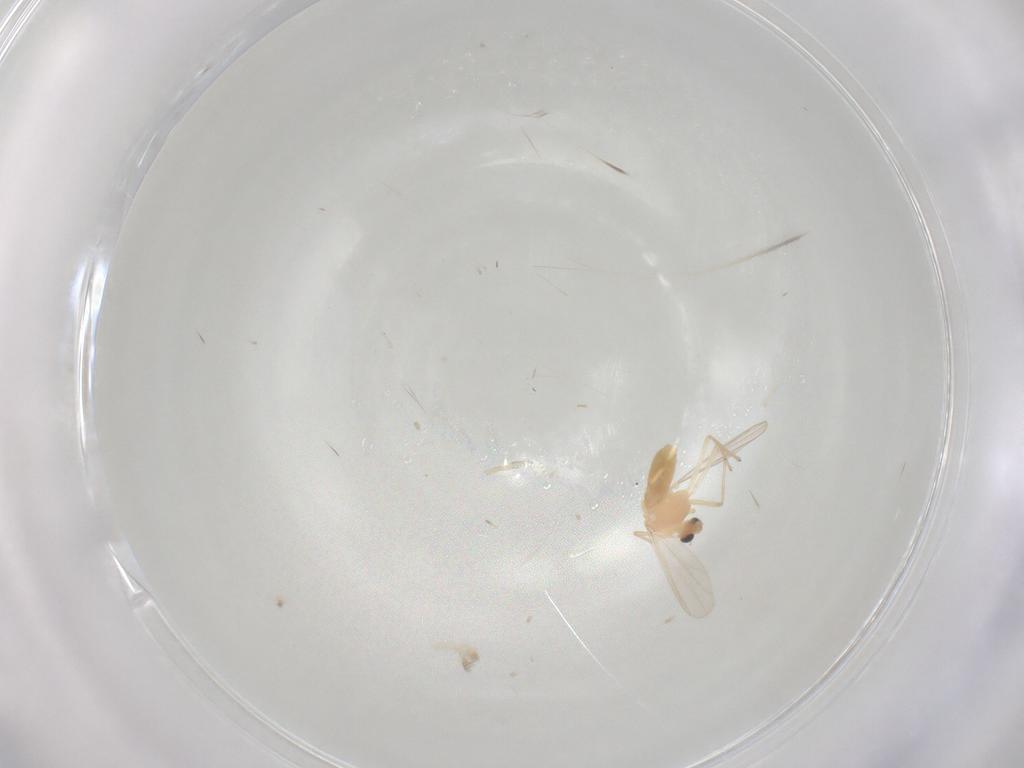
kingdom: Animalia
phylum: Arthropoda
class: Insecta
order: Diptera
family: Chironomidae
